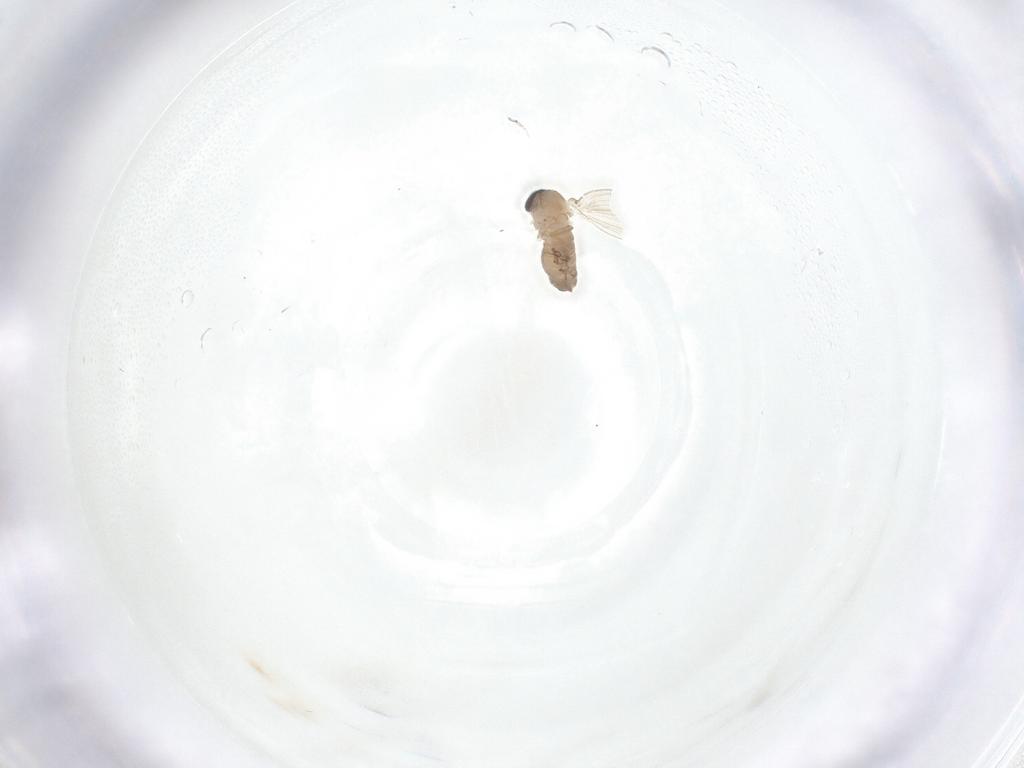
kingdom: Animalia
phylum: Arthropoda
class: Insecta
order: Diptera
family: Psychodidae
